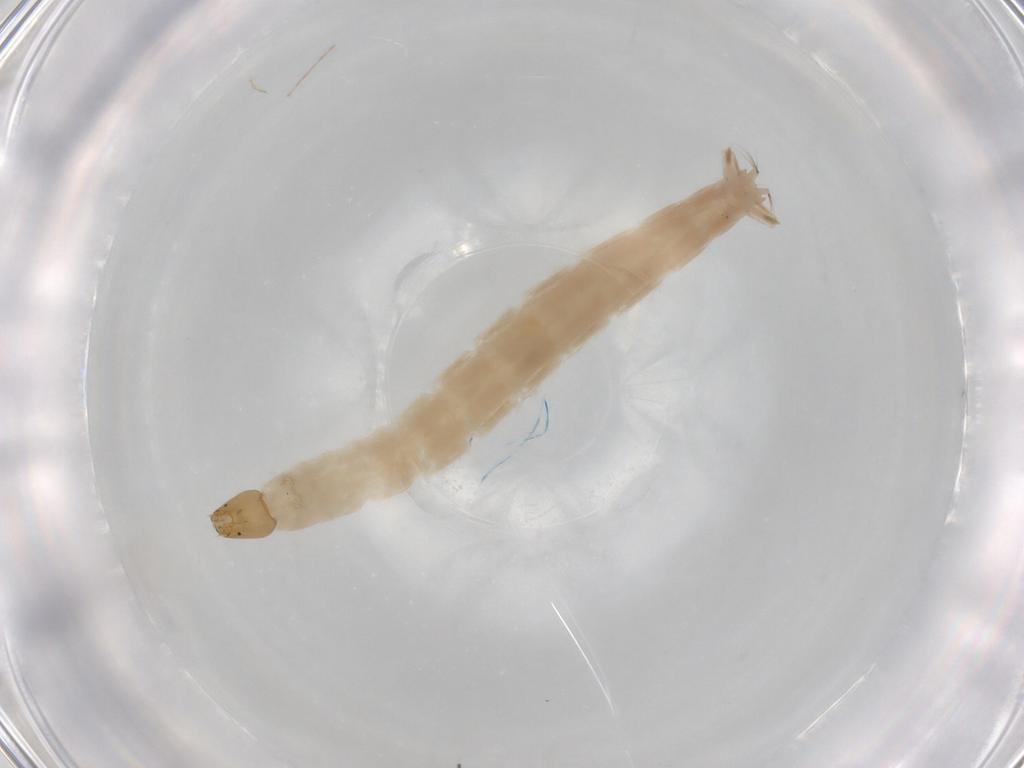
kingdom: Animalia
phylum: Arthropoda
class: Insecta
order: Diptera
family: Chironomidae
